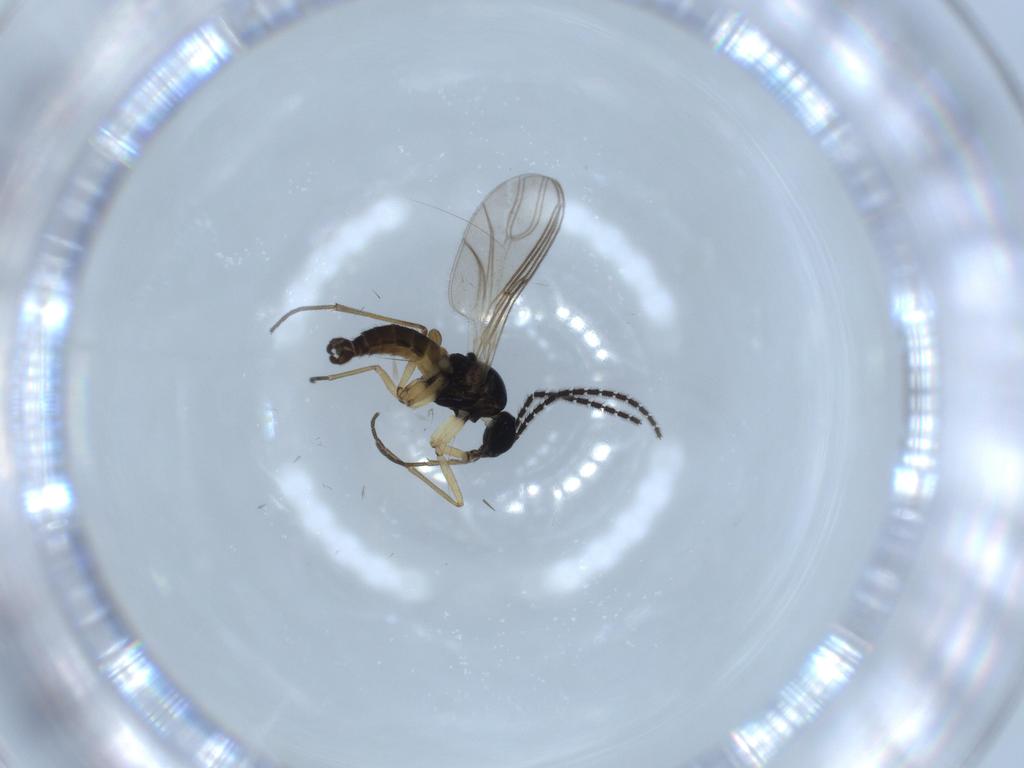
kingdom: Animalia
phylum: Arthropoda
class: Insecta
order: Diptera
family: Sciaridae
